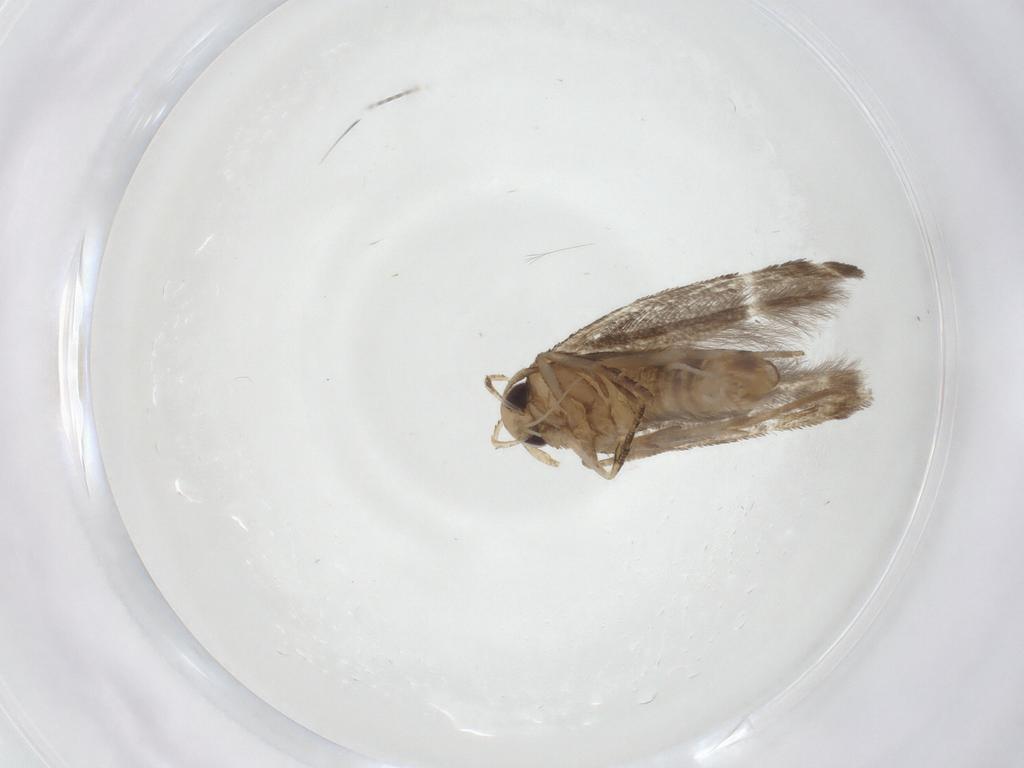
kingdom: Animalia
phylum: Arthropoda
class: Insecta
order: Lepidoptera
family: Cosmopterigidae
